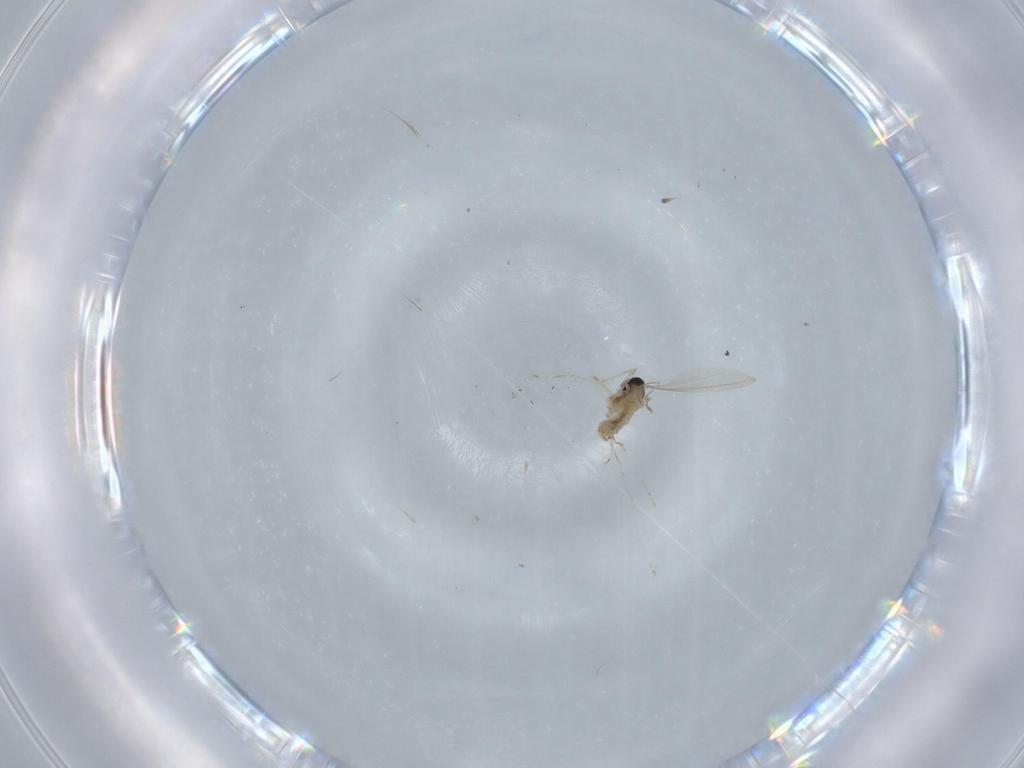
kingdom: Animalia
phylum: Arthropoda
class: Insecta
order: Diptera
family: Cecidomyiidae
